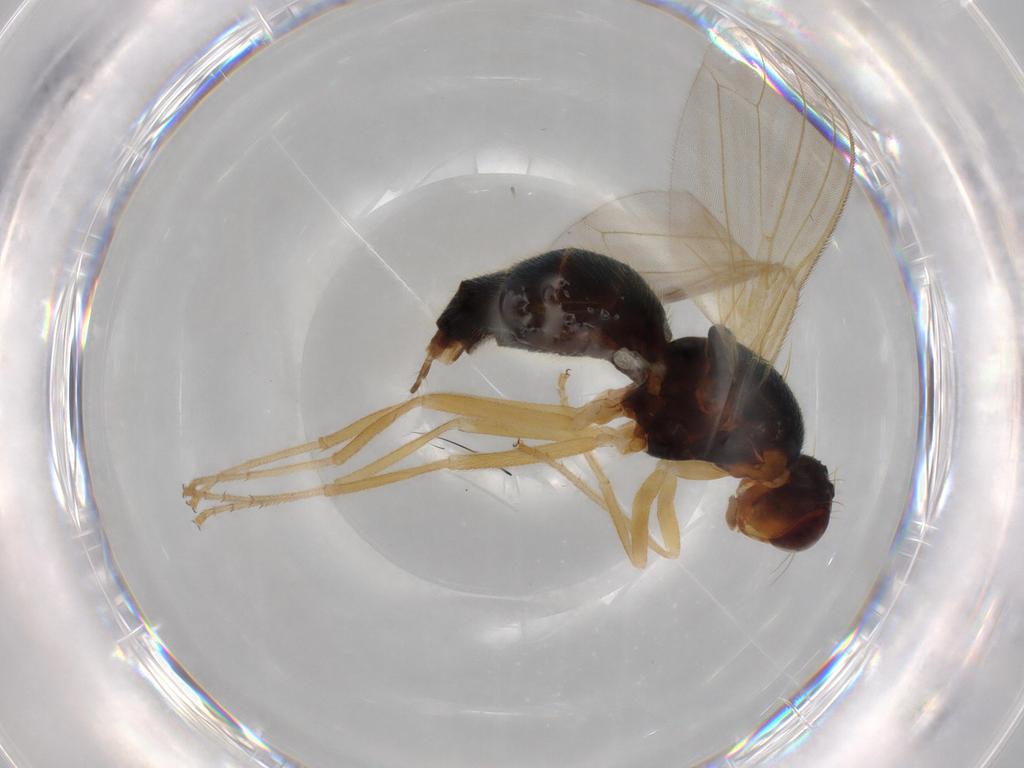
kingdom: Animalia
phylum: Arthropoda
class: Insecta
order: Diptera
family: Psilidae
